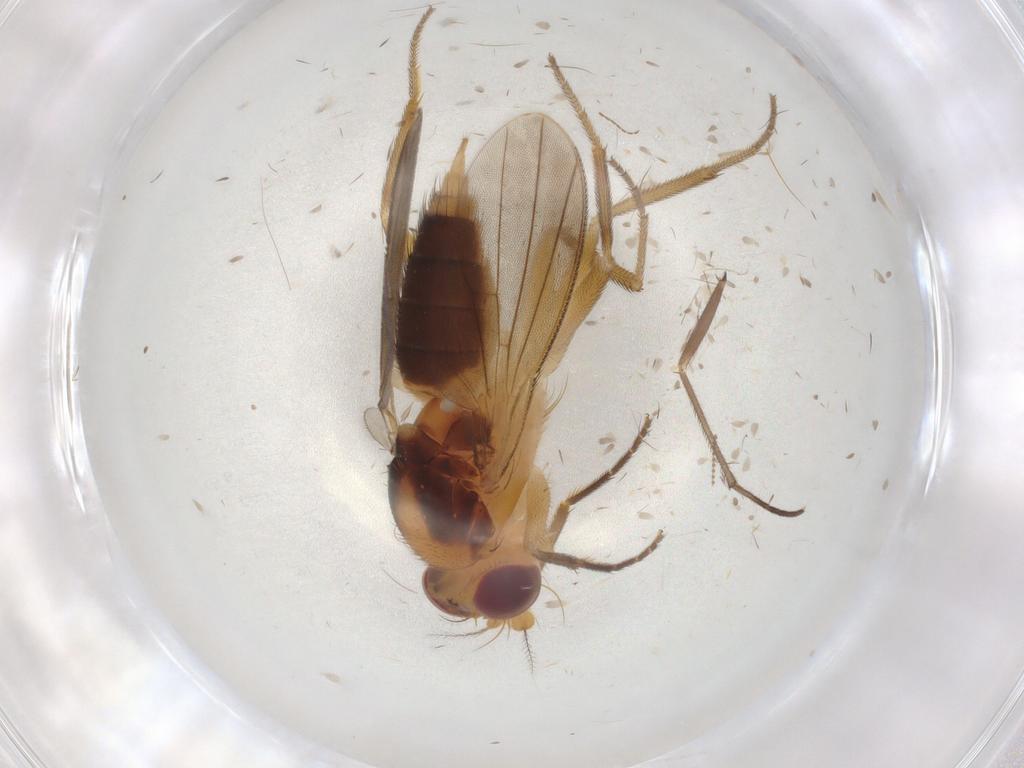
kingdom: Animalia
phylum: Arthropoda
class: Insecta
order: Diptera
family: Agromyzidae
